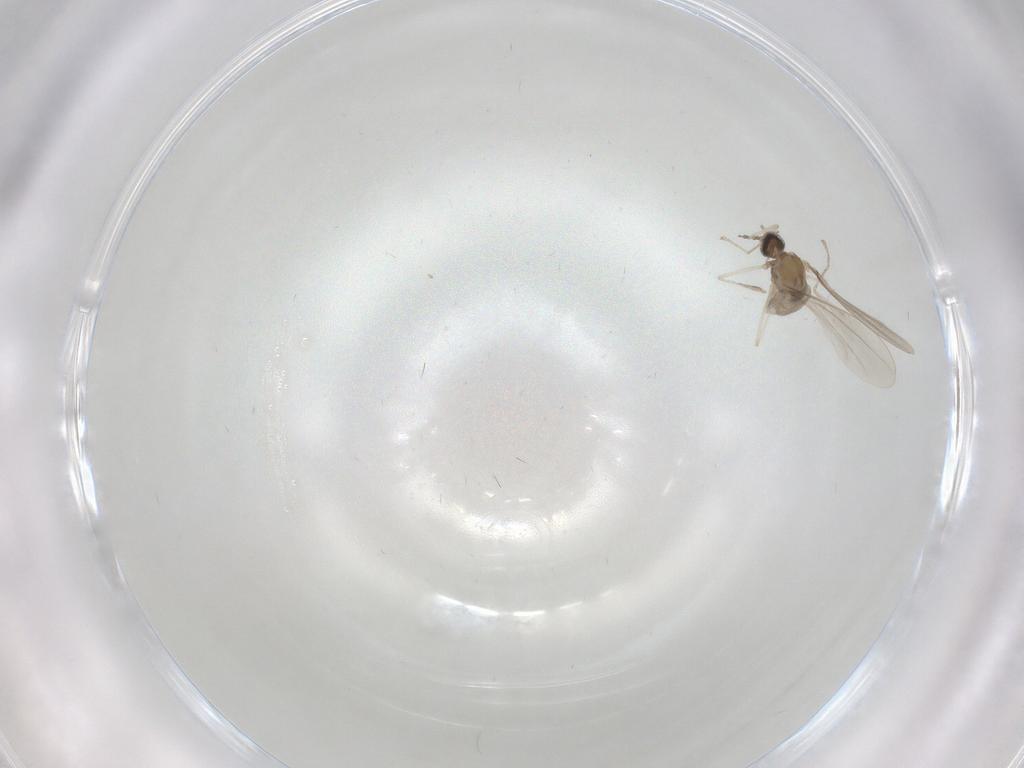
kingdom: Animalia
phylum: Arthropoda
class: Insecta
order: Diptera
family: Cecidomyiidae
